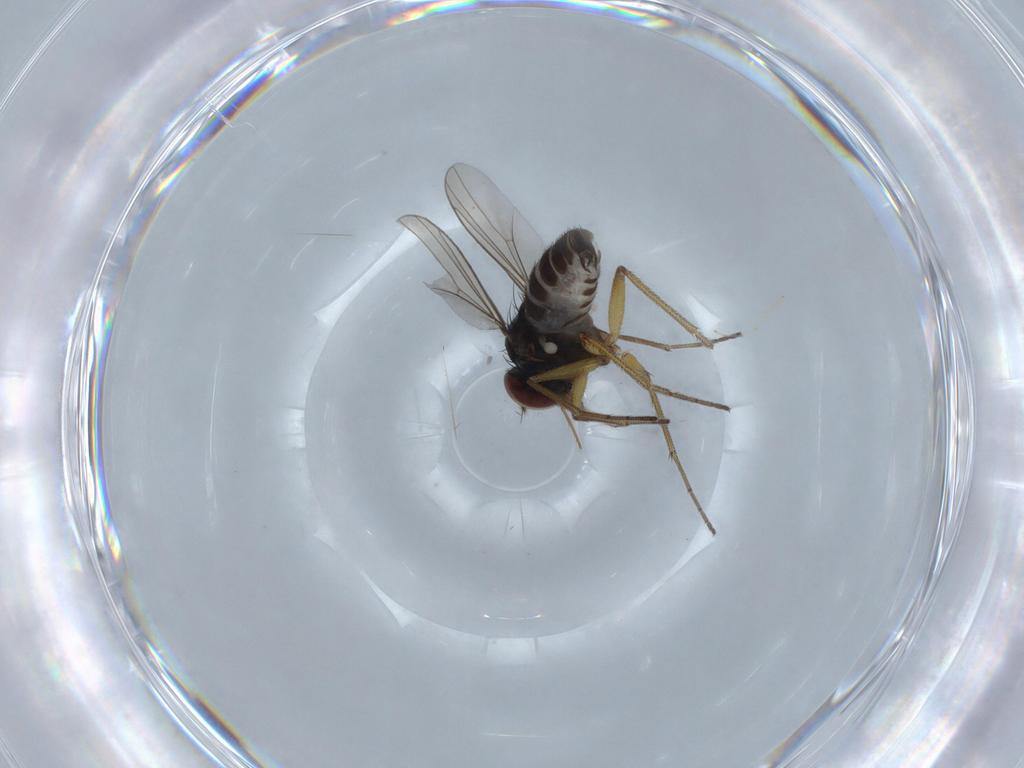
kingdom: Animalia
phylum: Arthropoda
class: Insecta
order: Diptera
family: Dolichopodidae
